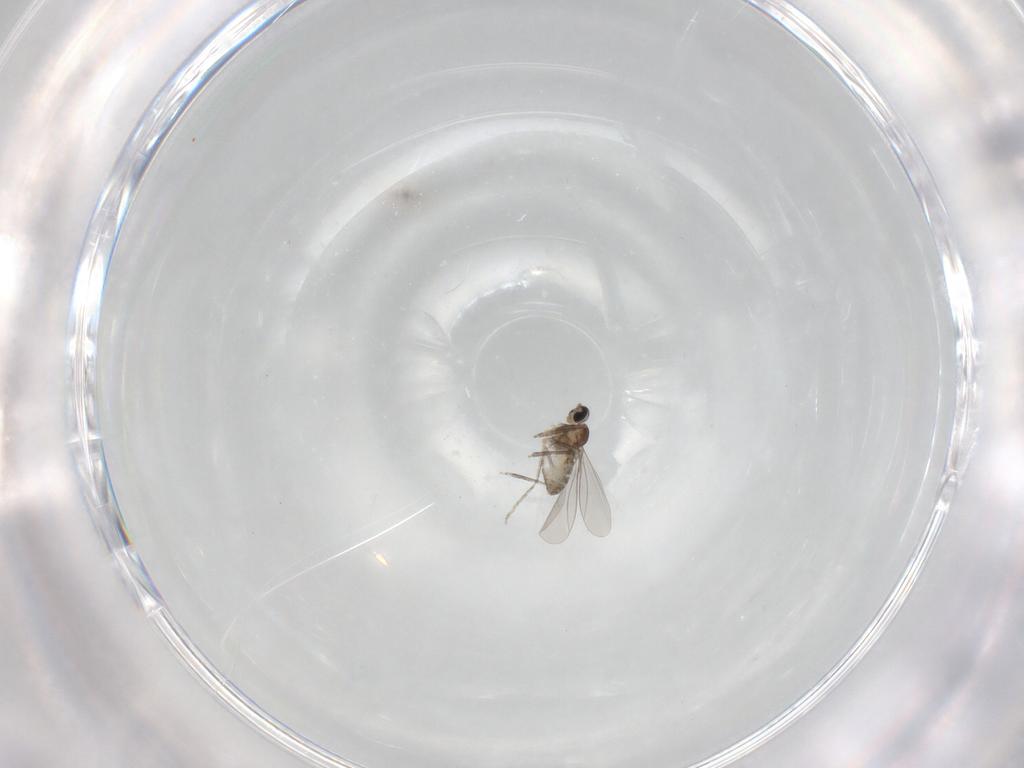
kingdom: Animalia
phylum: Arthropoda
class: Insecta
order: Diptera
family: Cecidomyiidae
